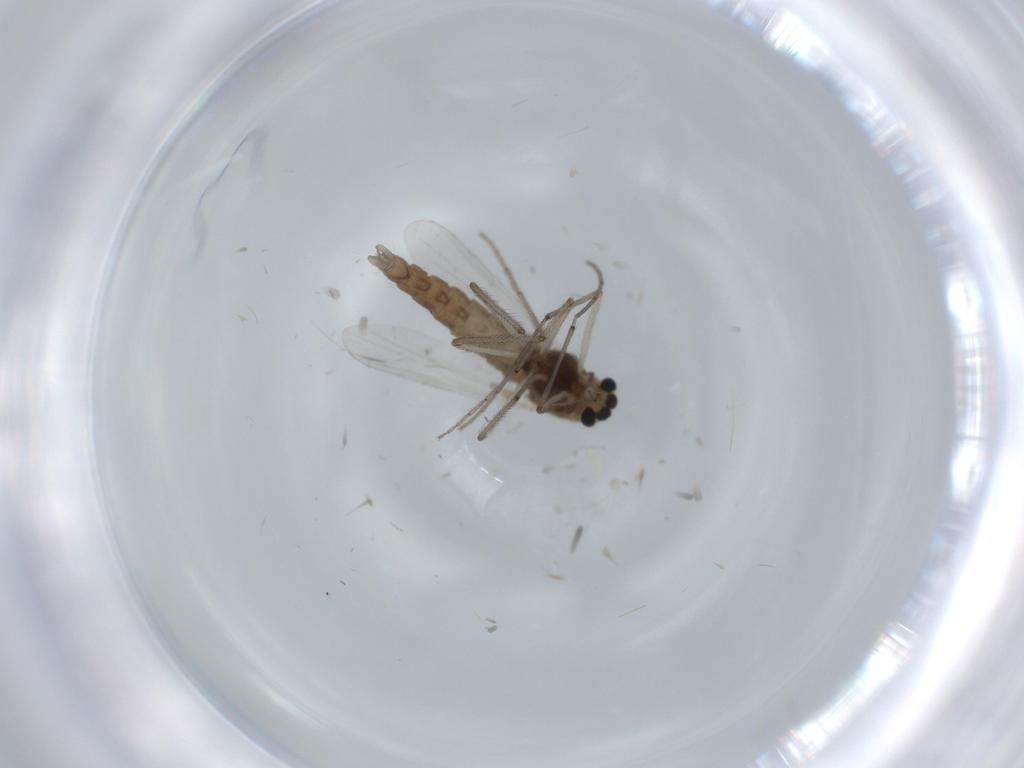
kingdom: Animalia
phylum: Arthropoda
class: Insecta
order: Diptera
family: Chironomidae
